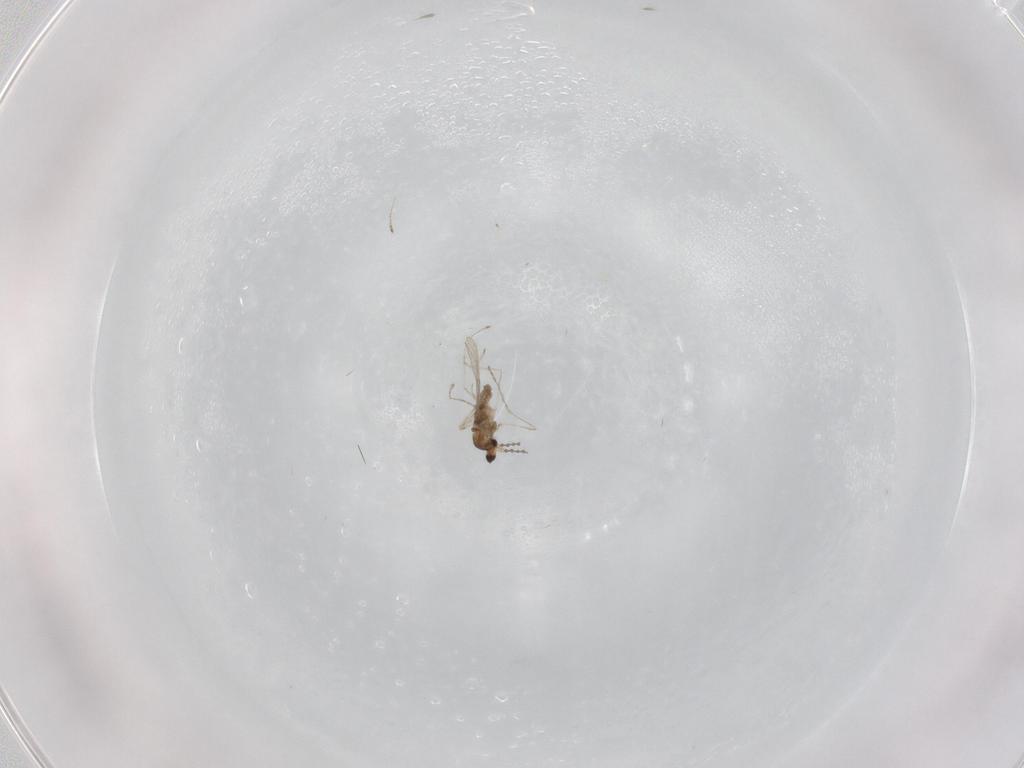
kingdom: Animalia
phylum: Arthropoda
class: Insecta
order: Diptera
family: Cecidomyiidae
